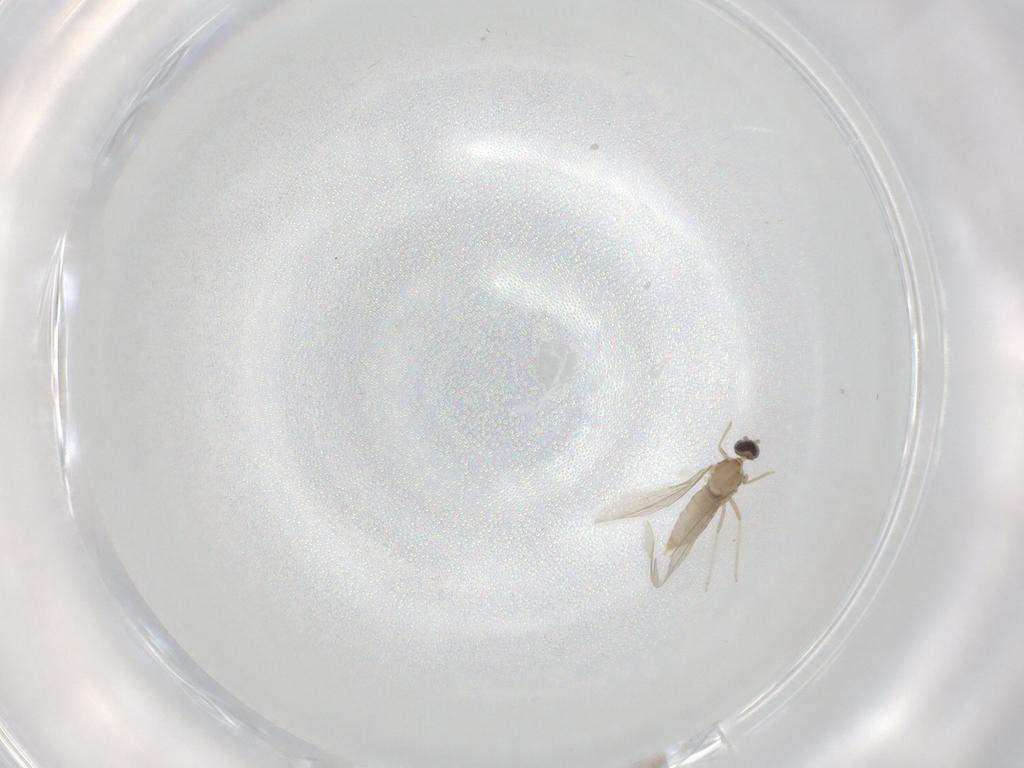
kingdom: Animalia
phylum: Arthropoda
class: Insecta
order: Diptera
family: Cecidomyiidae
